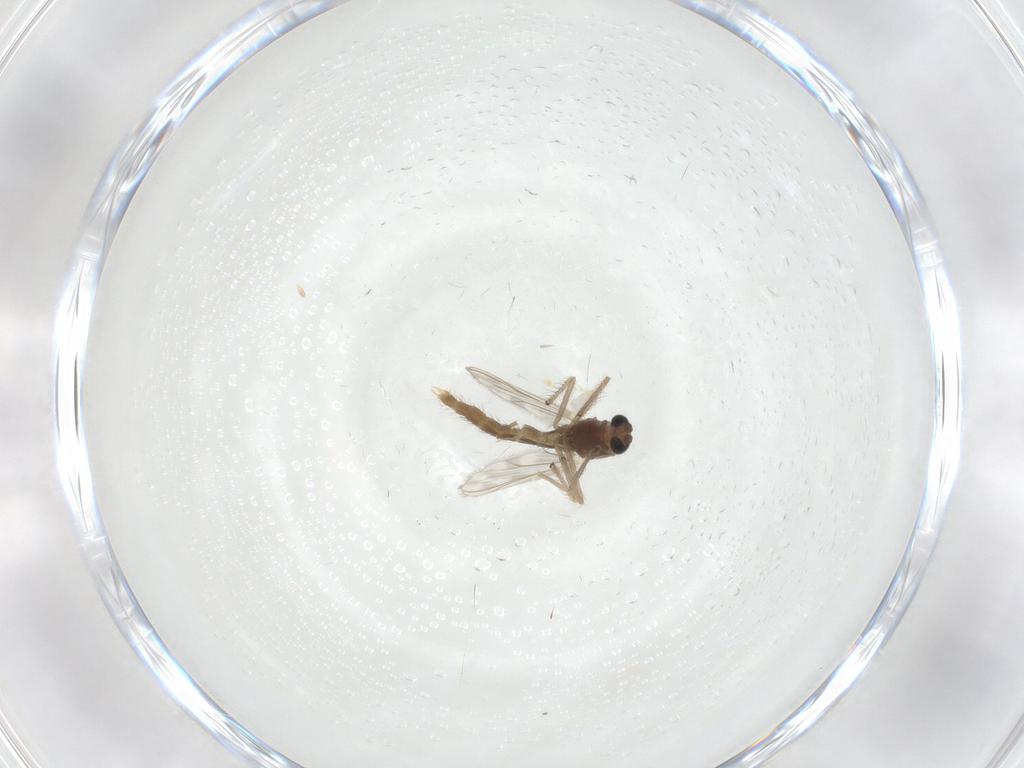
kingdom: Animalia
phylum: Arthropoda
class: Insecta
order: Diptera
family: Chironomidae
